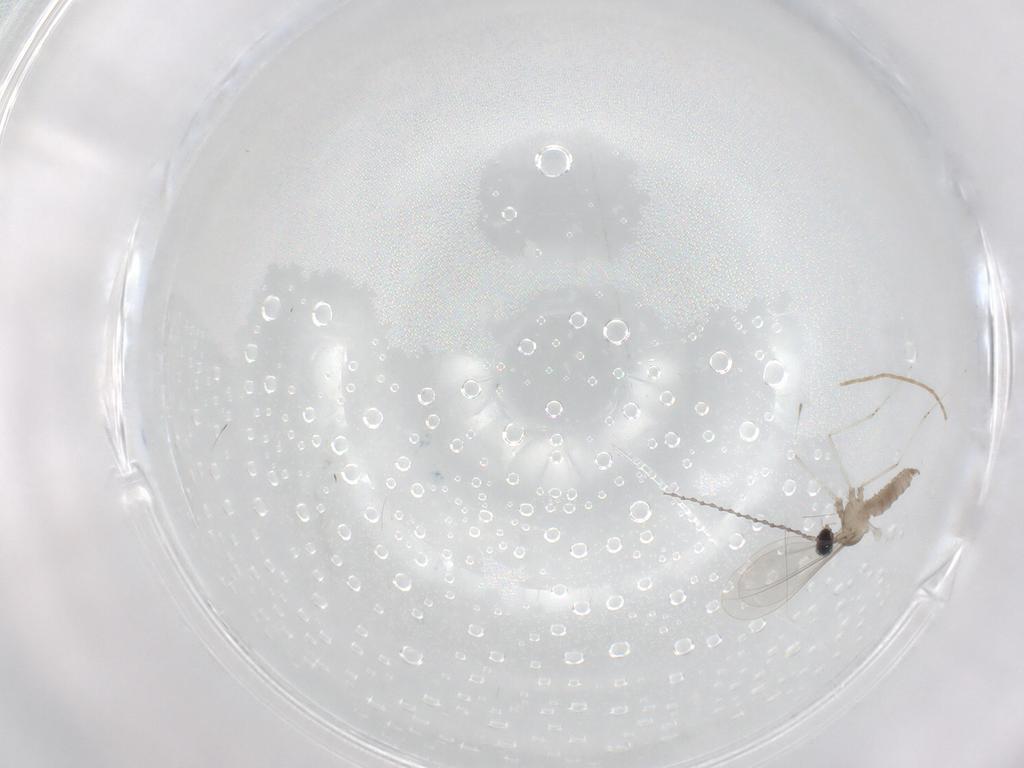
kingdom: Animalia
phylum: Arthropoda
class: Insecta
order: Diptera
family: Cecidomyiidae
